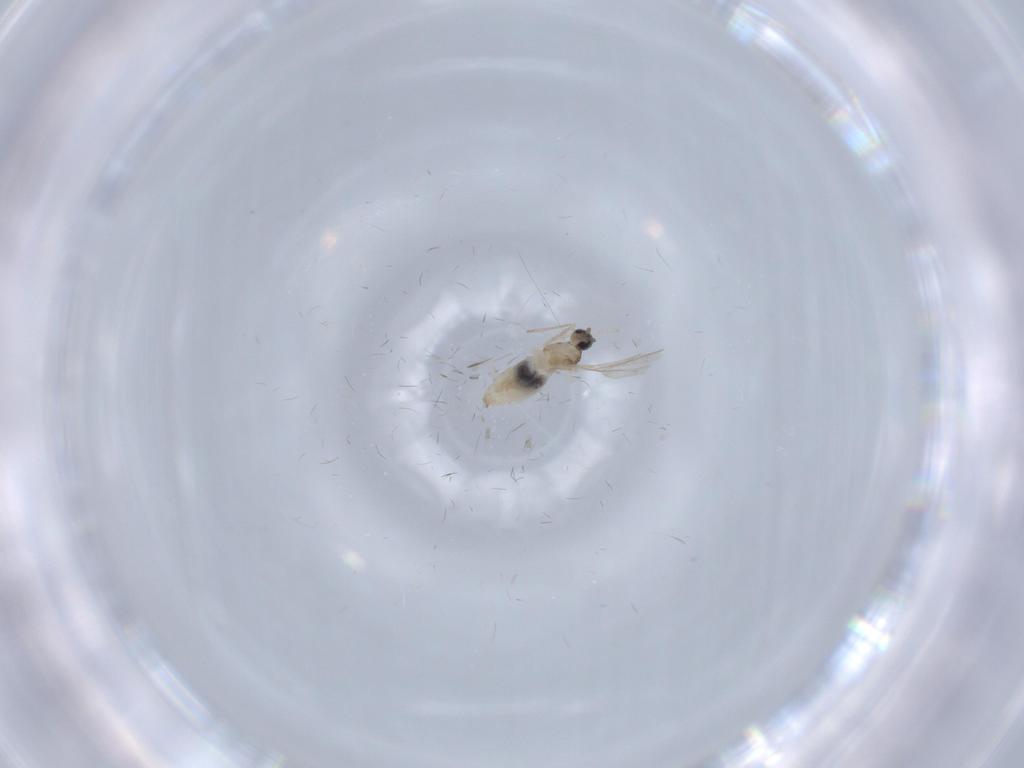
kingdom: Animalia
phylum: Arthropoda
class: Insecta
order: Diptera
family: Cecidomyiidae
